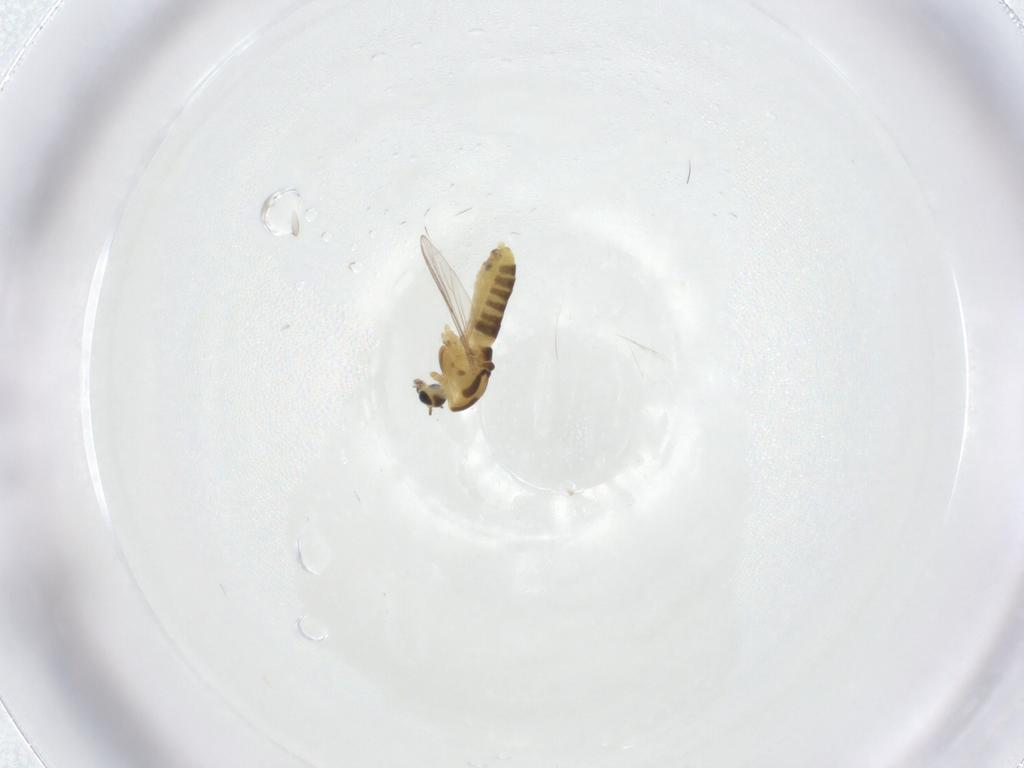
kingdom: Animalia
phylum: Arthropoda
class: Insecta
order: Diptera
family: Chironomidae
